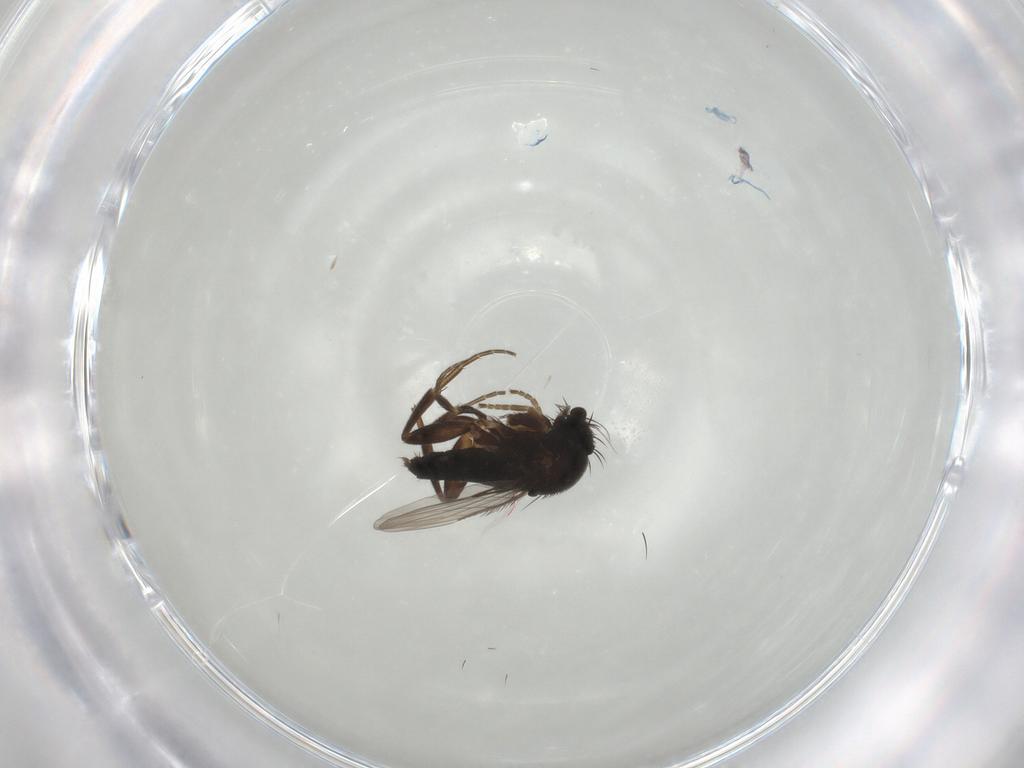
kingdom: Animalia
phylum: Arthropoda
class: Insecta
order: Diptera
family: Phoridae
